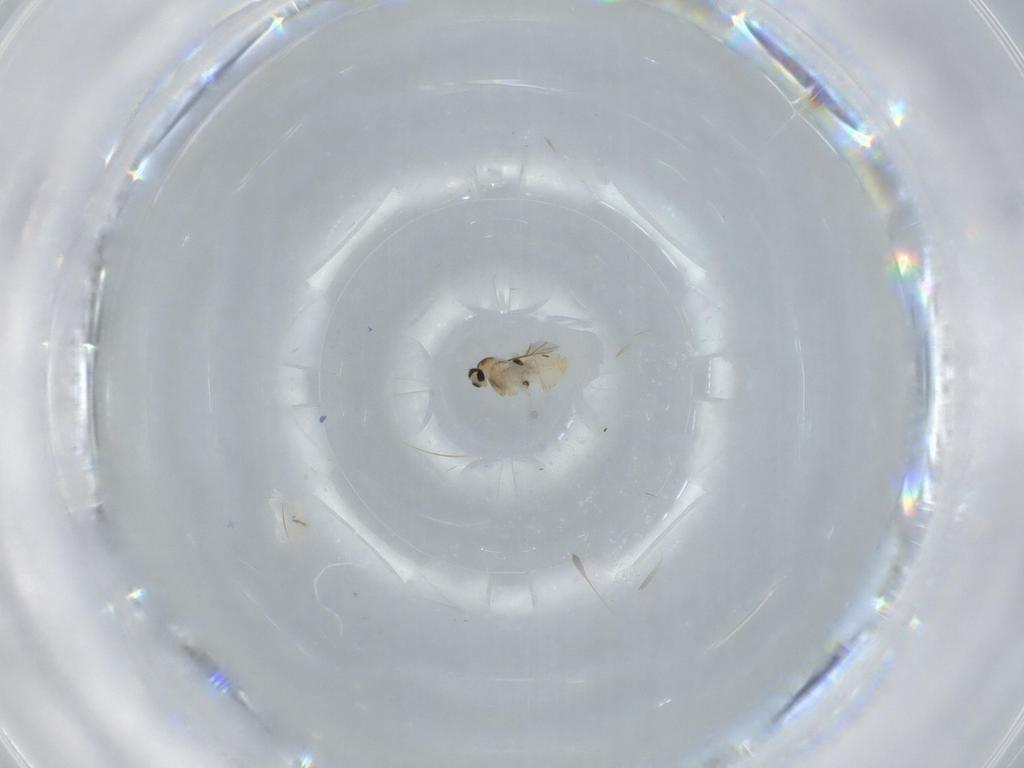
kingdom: Animalia
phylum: Arthropoda
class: Insecta
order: Diptera
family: Cecidomyiidae
